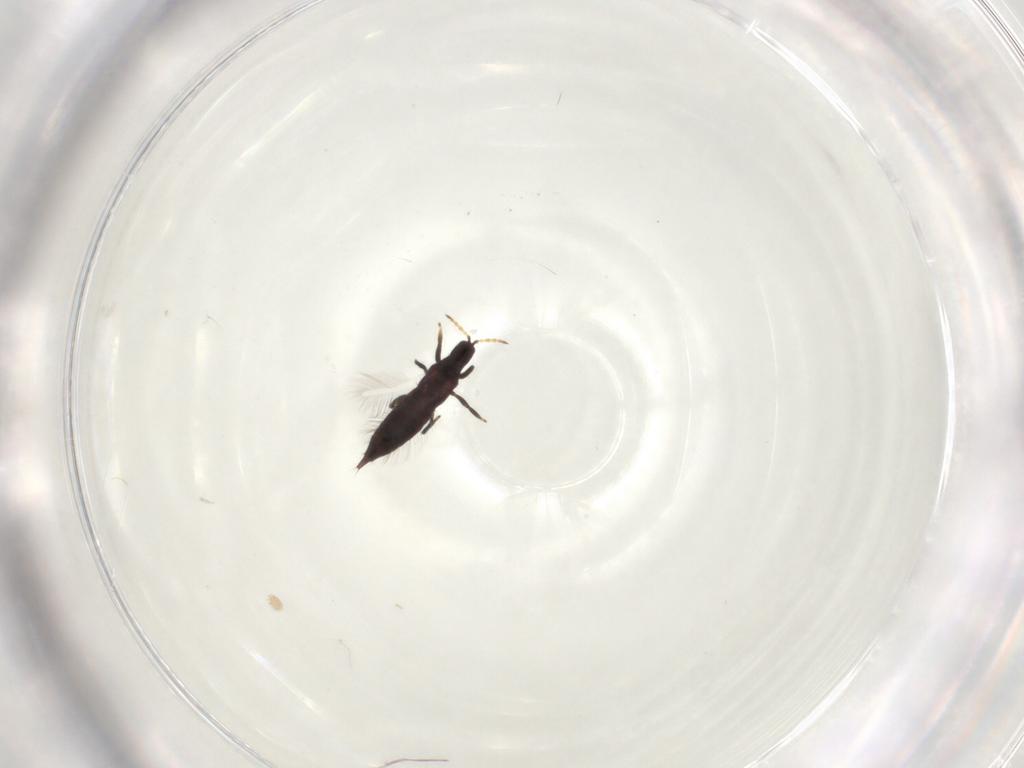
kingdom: Animalia
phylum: Arthropoda
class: Insecta
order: Thysanoptera
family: Phlaeothripidae
